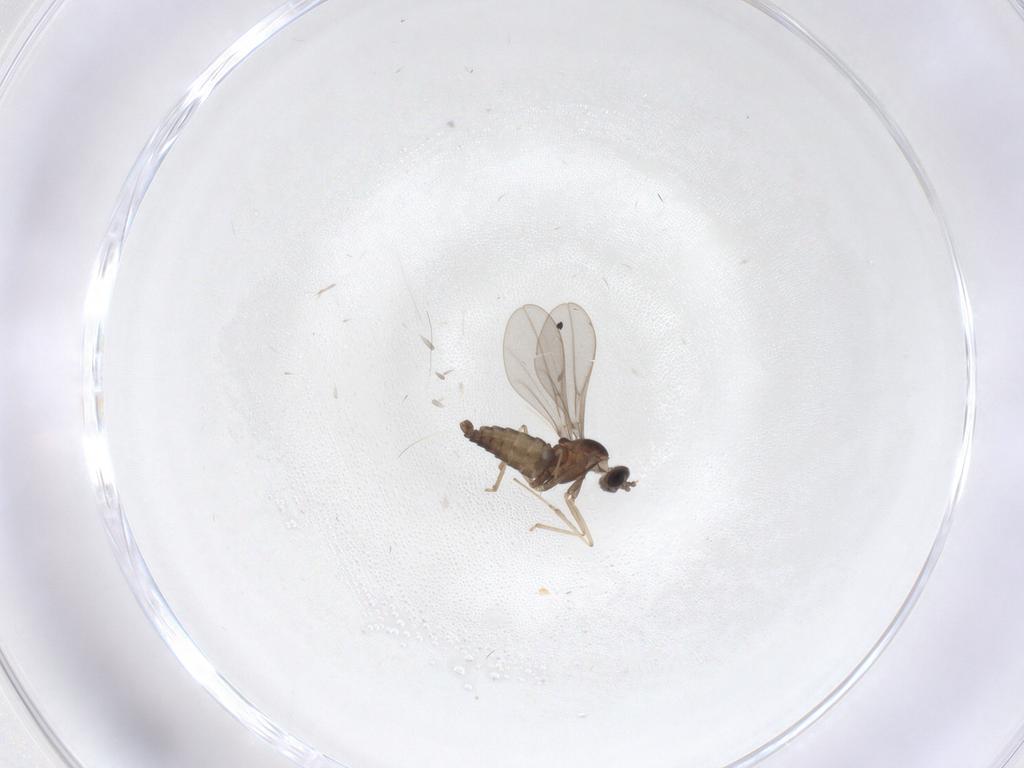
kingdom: Animalia
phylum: Arthropoda
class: Insecta
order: Diptera
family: Cecidomyiidae
